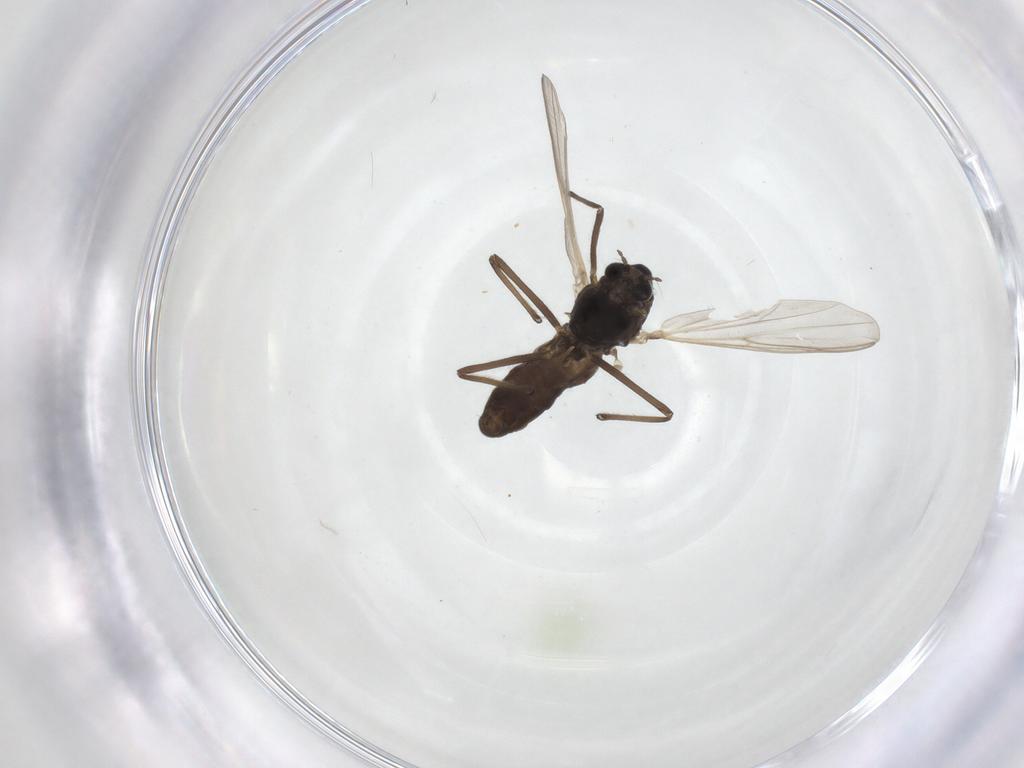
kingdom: Animalia
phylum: Arthropoda
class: Insecta
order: Diptera
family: Chironomidae
